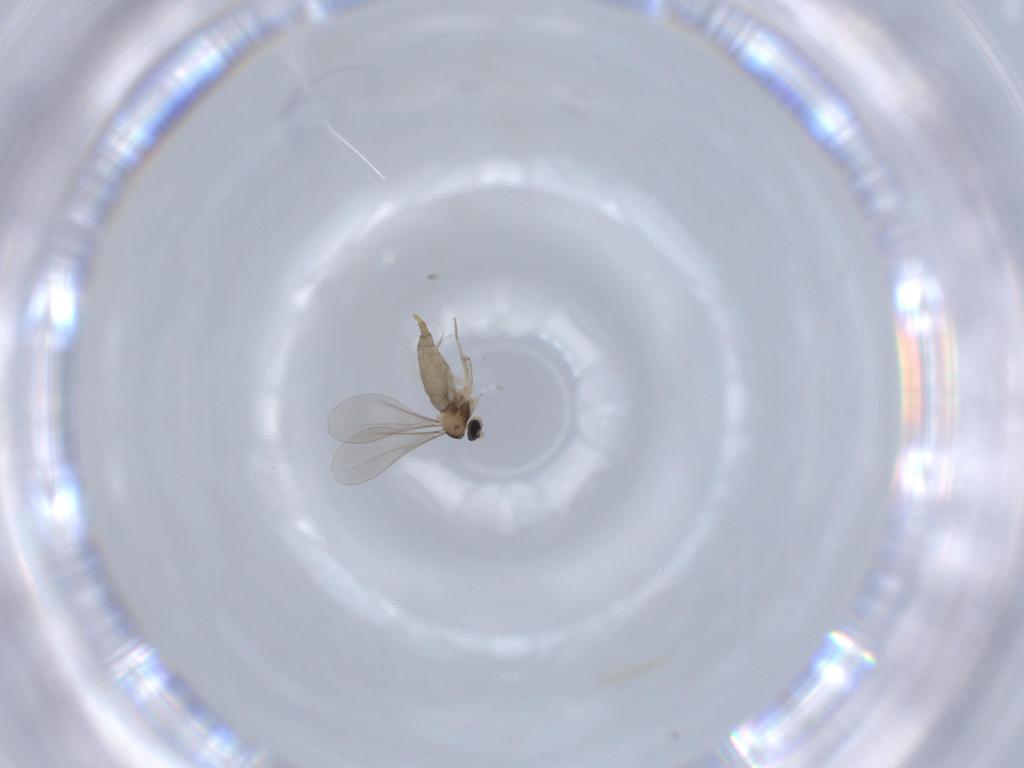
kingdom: Animalia
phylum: Arthropoda
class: Insecta
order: Diptera
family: Cecidomyiidae
